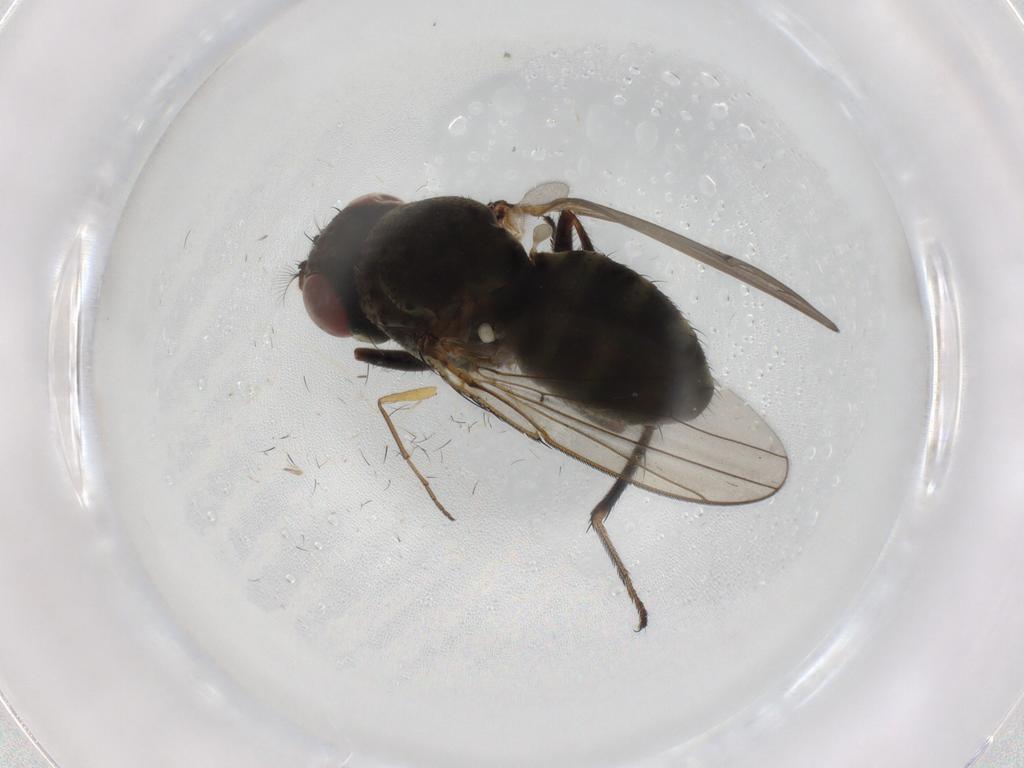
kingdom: Animalia
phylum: Arthropoda
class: Insecta
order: Diptera
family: Ephydridae
